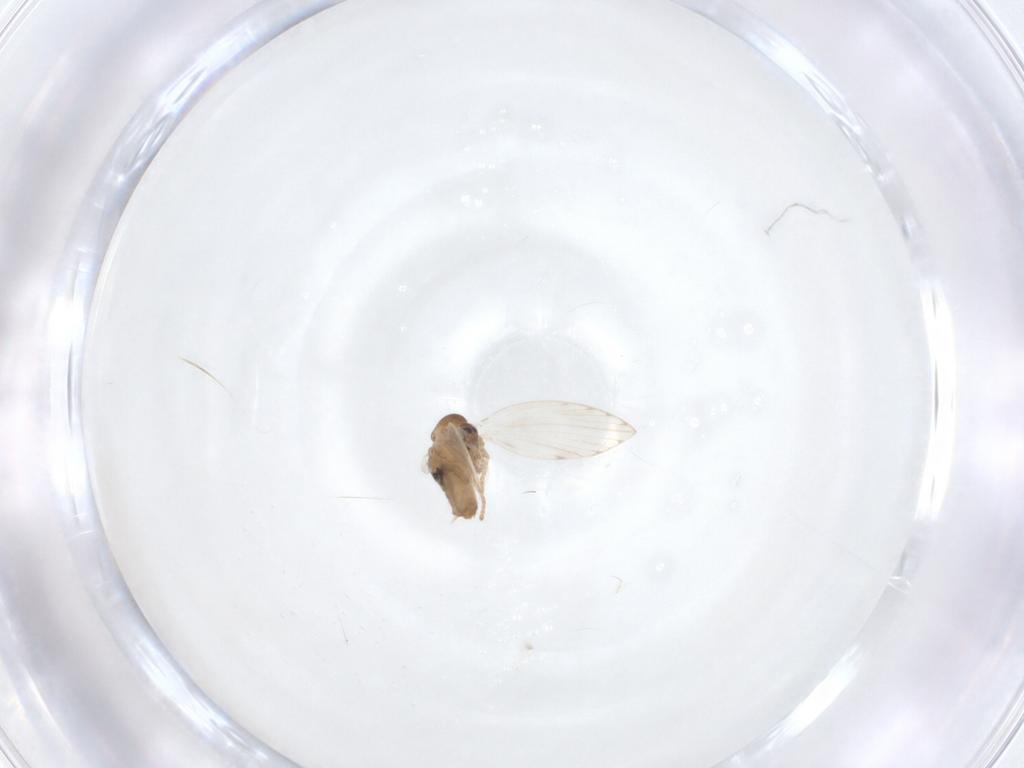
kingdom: Animalia
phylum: Arthropoda
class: Insecta
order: Diptera
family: Psychodidae
